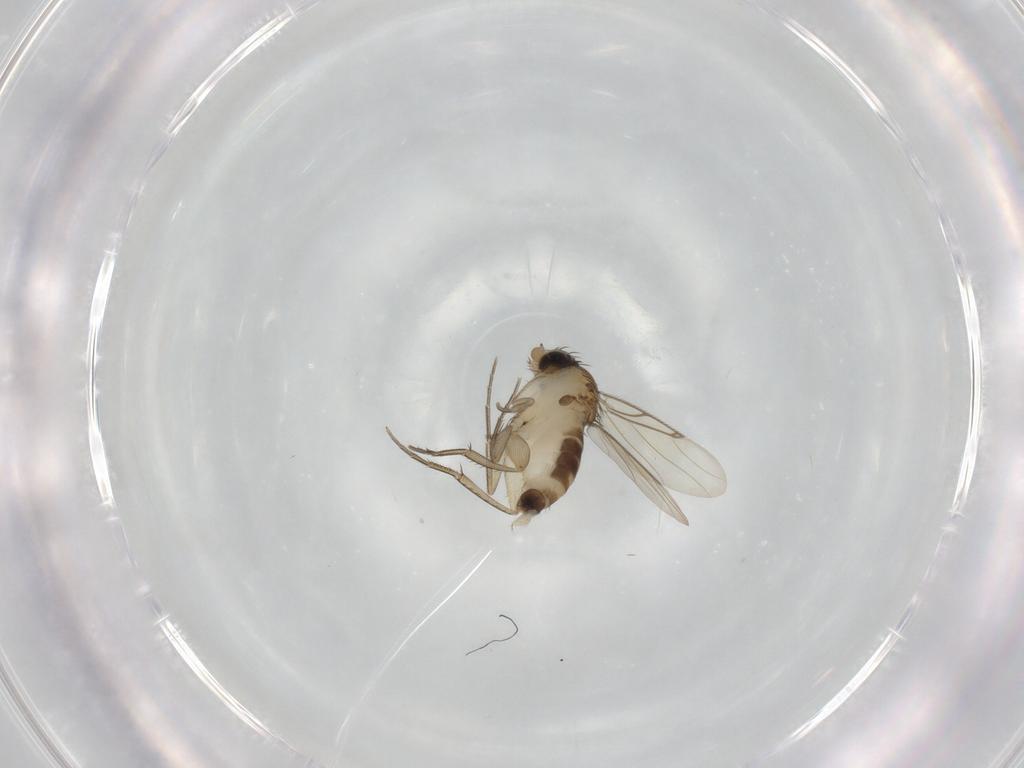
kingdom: Animalia
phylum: Arthropoda
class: Insecta
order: Diptera
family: Phoridae
